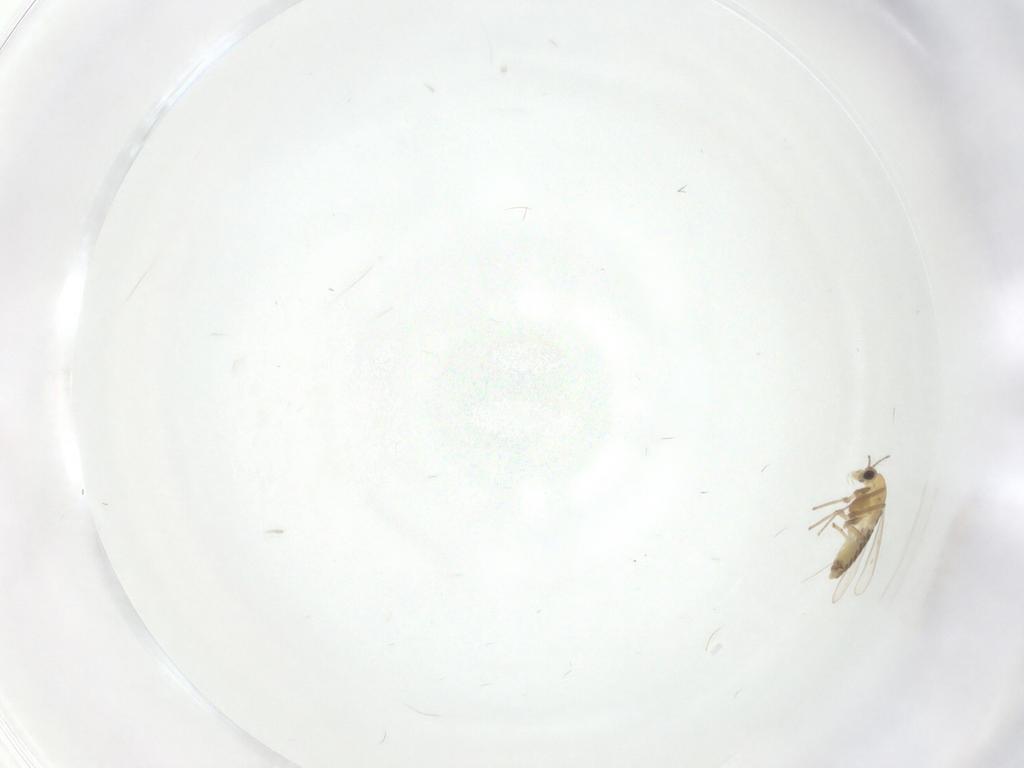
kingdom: Animalia
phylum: Arthropoda
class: Insecta
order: Diptera
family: Chironomidae
